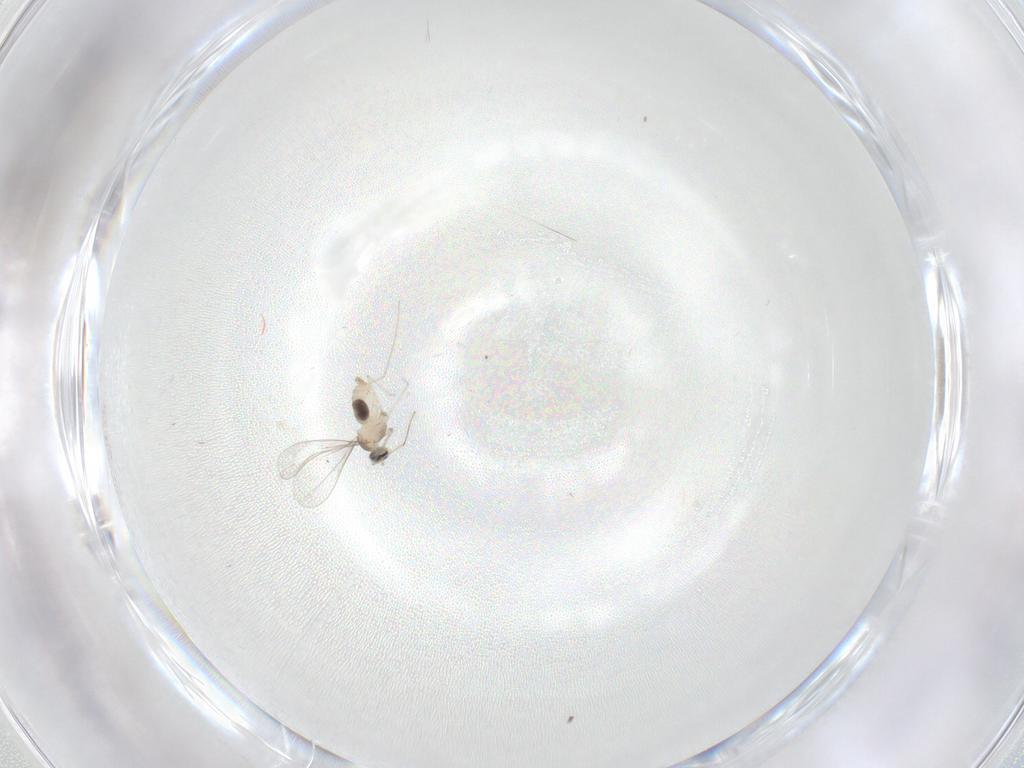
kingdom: Animalia
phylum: Arthropoda
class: Insecta
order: Diptera
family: Cecidomyiidae
